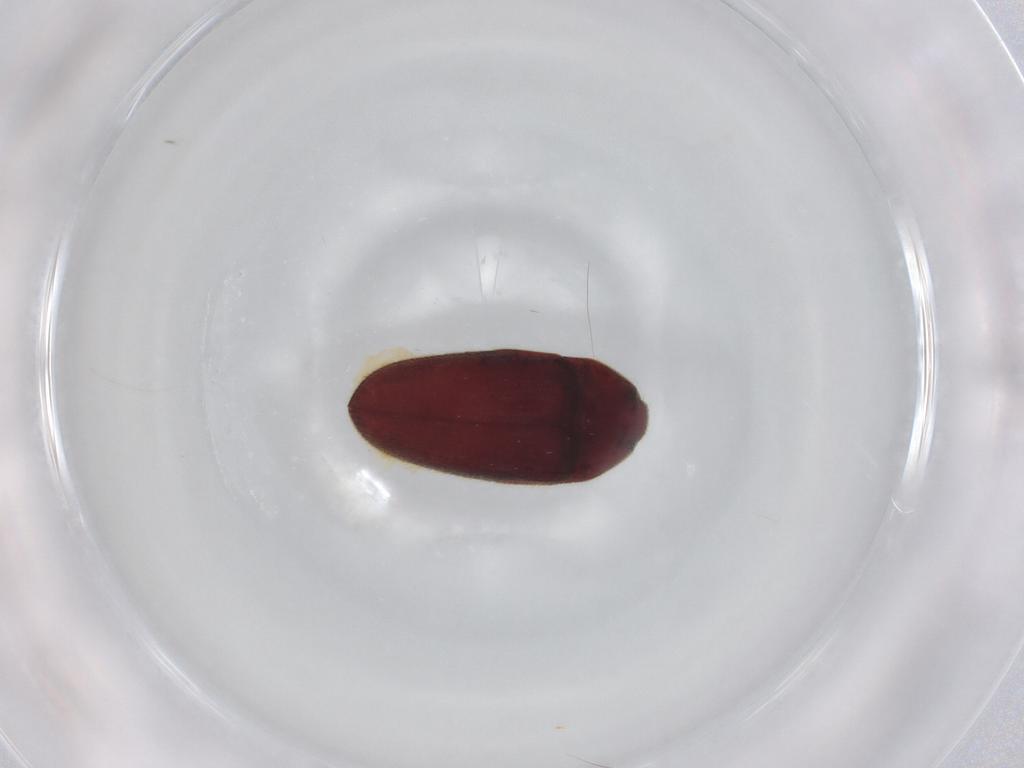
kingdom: Animalia
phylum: Arthropoda
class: Insecta
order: Coleoptera
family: Throscidae
